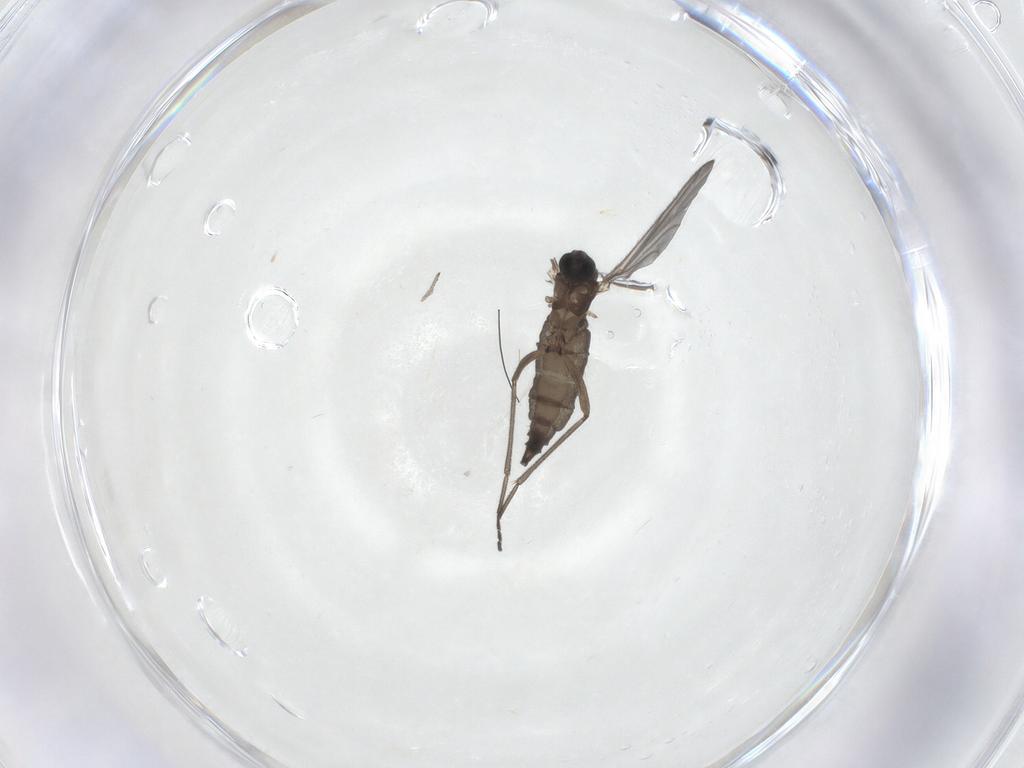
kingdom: Animalia
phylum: Arthropoda
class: Insecta
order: Diptera
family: Sciaridae
